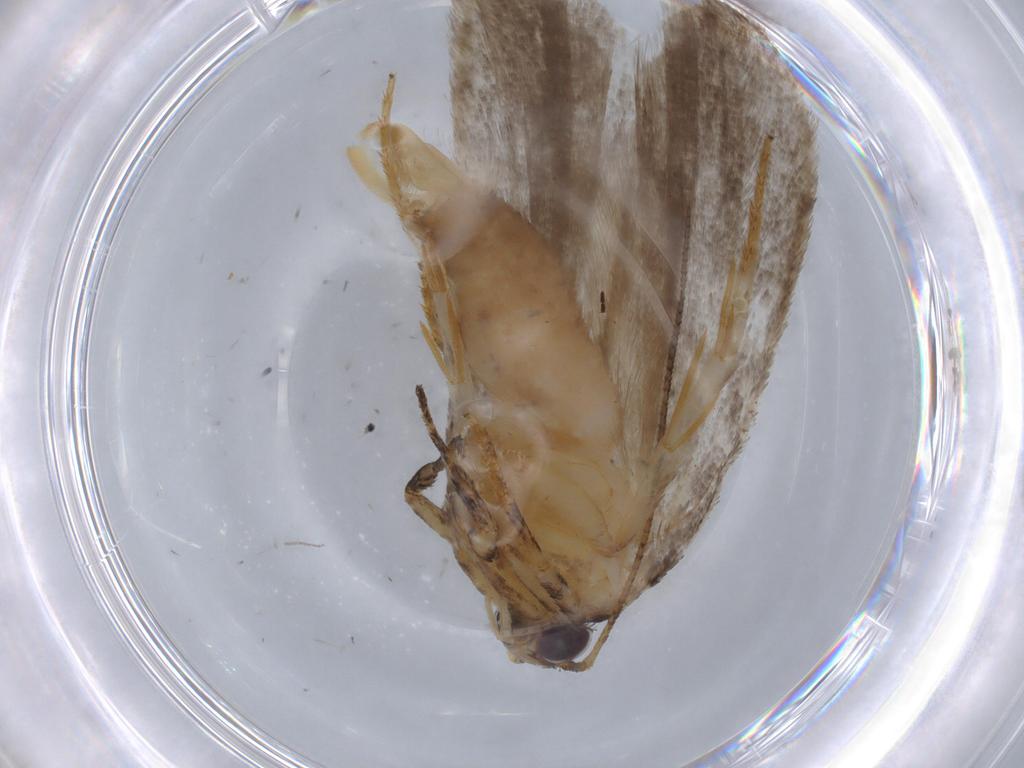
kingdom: Animalia
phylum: Arthropoda
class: Insecta
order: Lepidoptera
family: Gelechiidae
